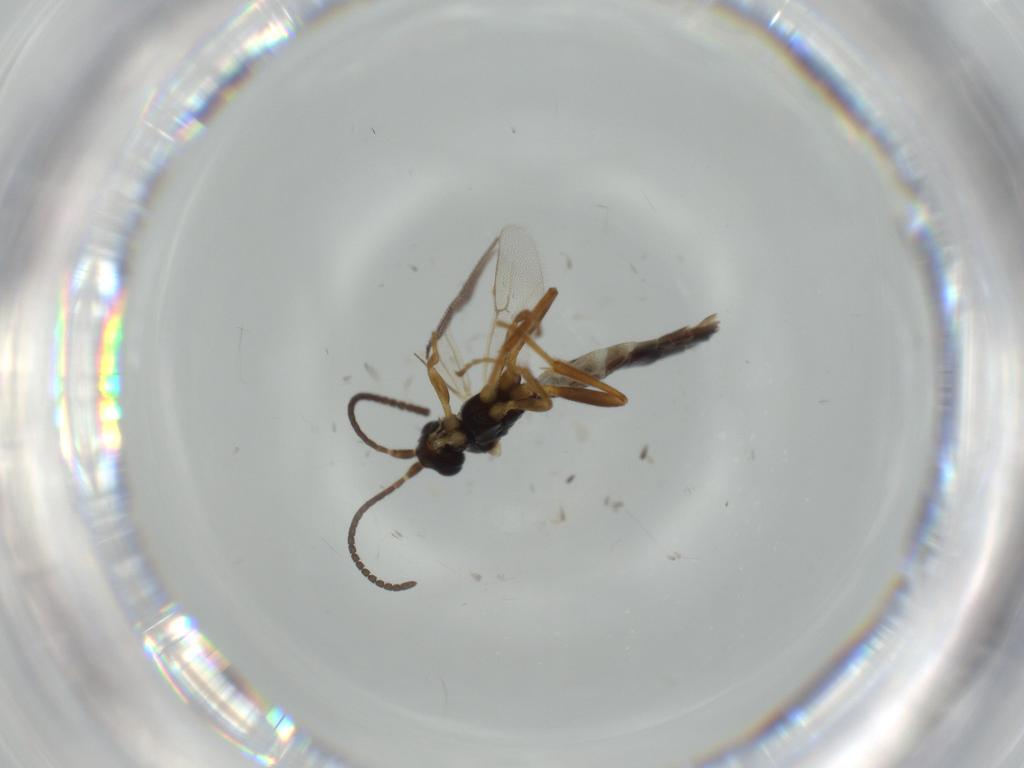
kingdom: Animalia
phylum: Arthropoda
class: Insecta
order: Hymenoptera
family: Ichneumonidae
